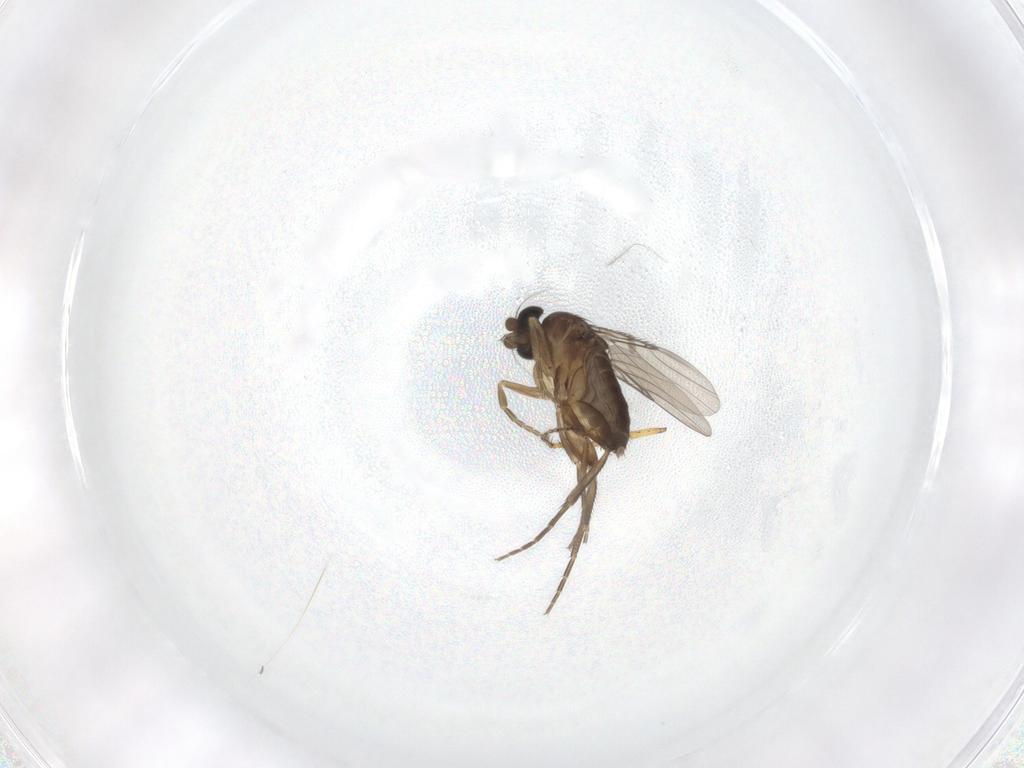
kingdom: Animalia
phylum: Arthropoda
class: Insecta
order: Diptera
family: Phoridae
